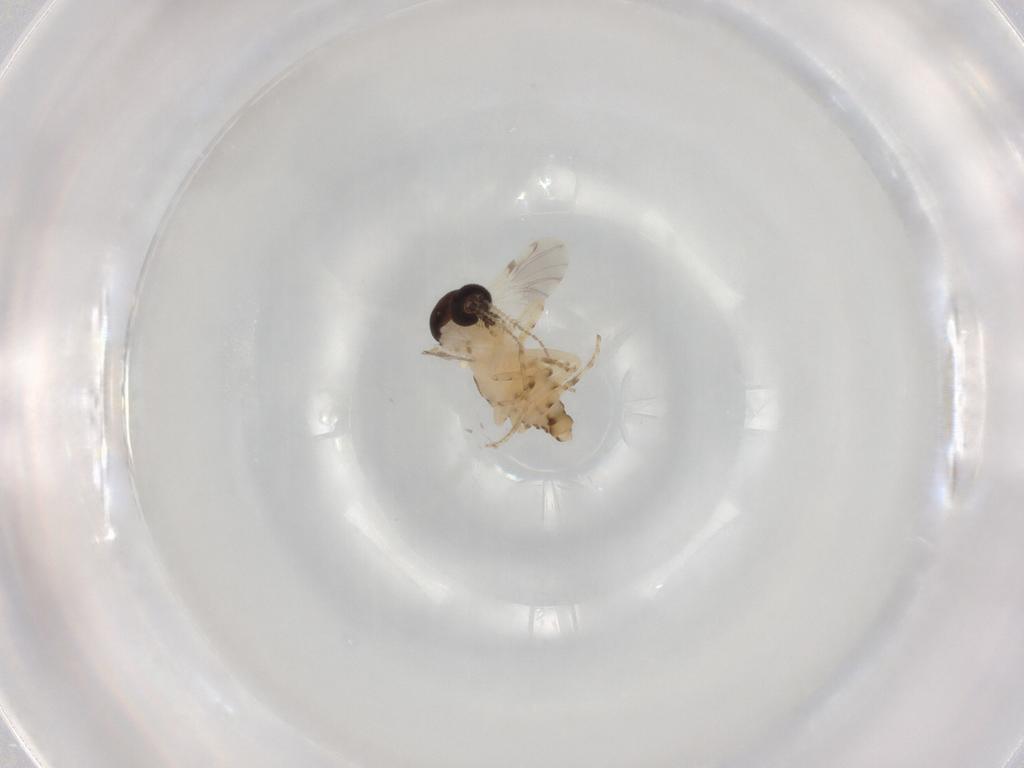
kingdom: Animalia
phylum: Arthropoda
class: Insecta
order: Diptera
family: Ceratopogonidae
